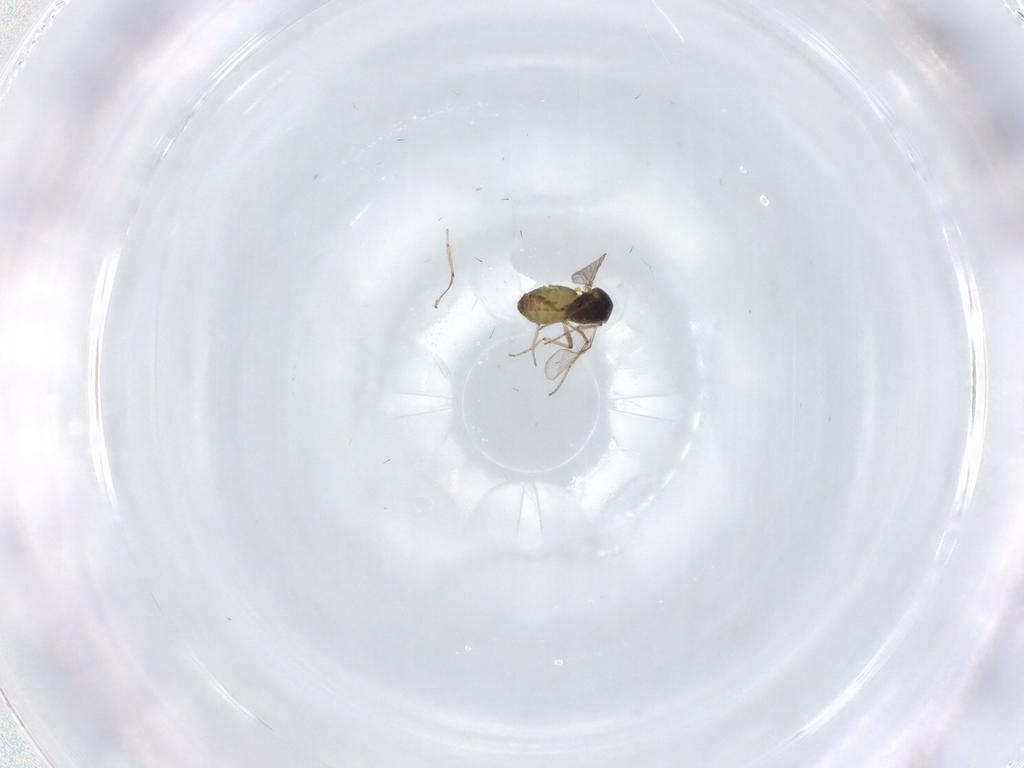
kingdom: Animalia
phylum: Arthropoda
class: Insecta
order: Diptera
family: Ceratopogonidae
